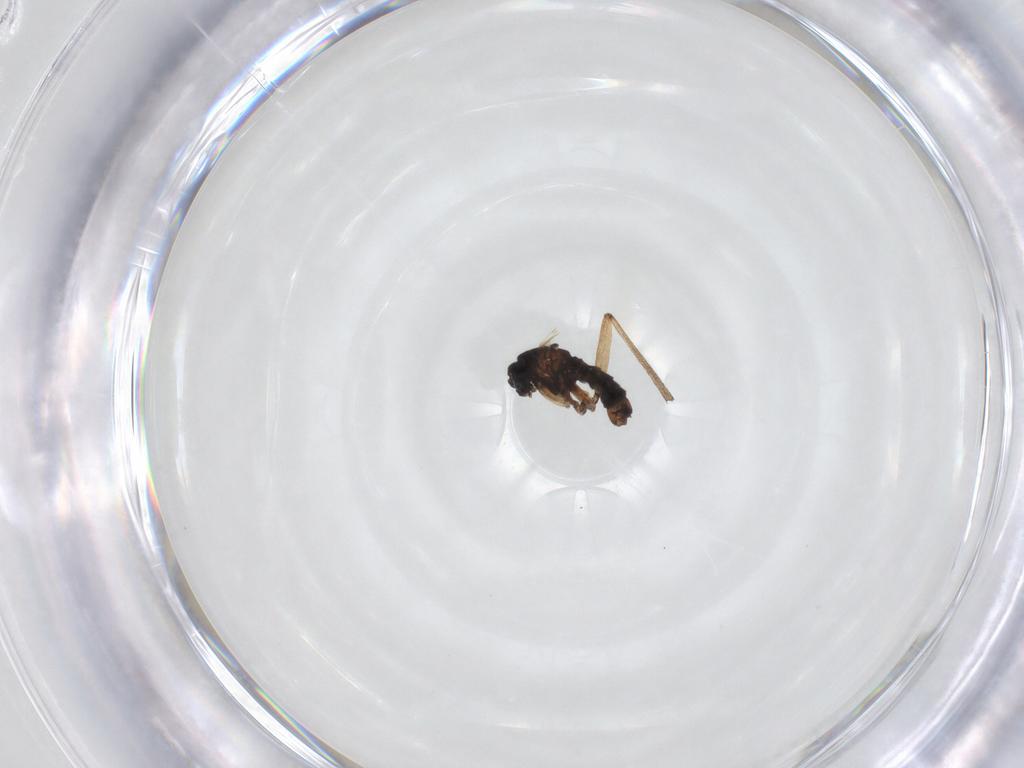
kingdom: Animalia
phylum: Arthropoda
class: Insecta
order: Diptera
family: Sciaridae
